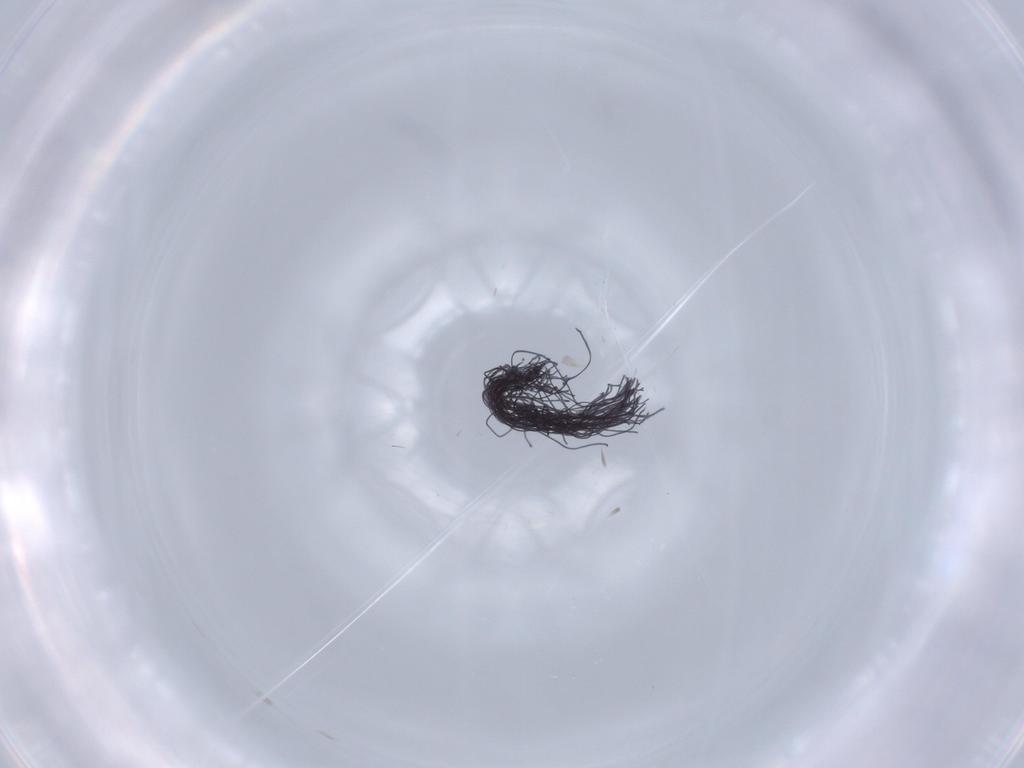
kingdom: Animalia
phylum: Arthropoda
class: Insecta
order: Diptera
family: Cecidomyiidae
